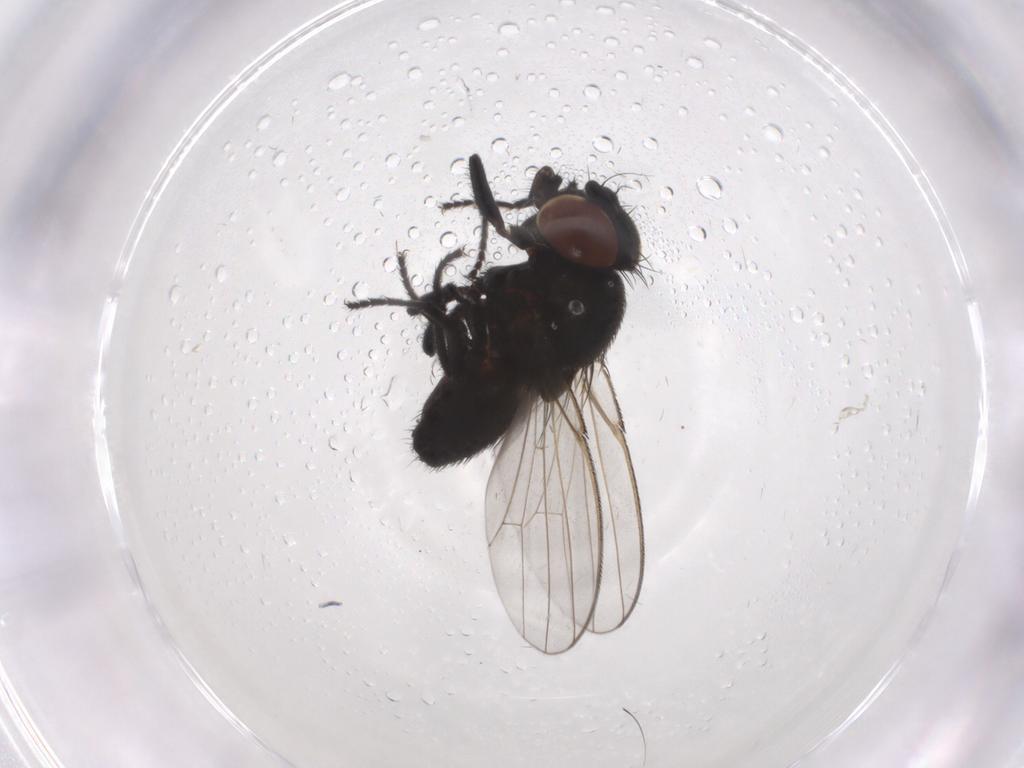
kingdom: Animalia
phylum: Arthropoda
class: Insecta
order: Diptera
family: Milichiidae
